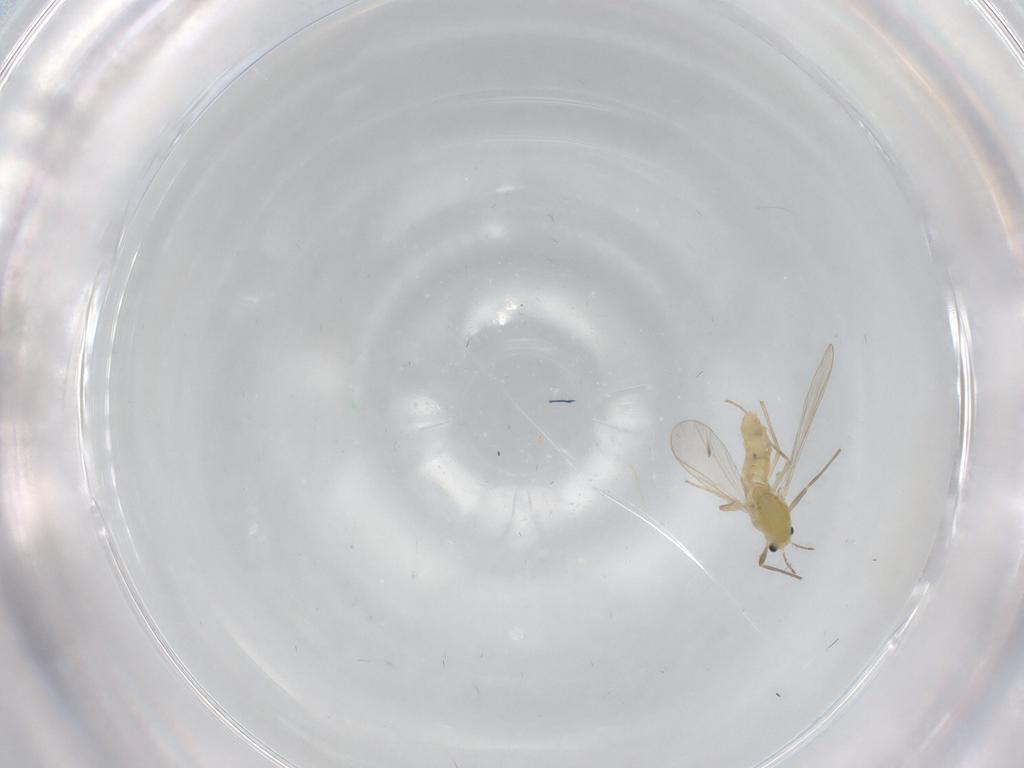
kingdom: Animalia
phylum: Arthropoda
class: Insecta
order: Diptera
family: Chironomidae
